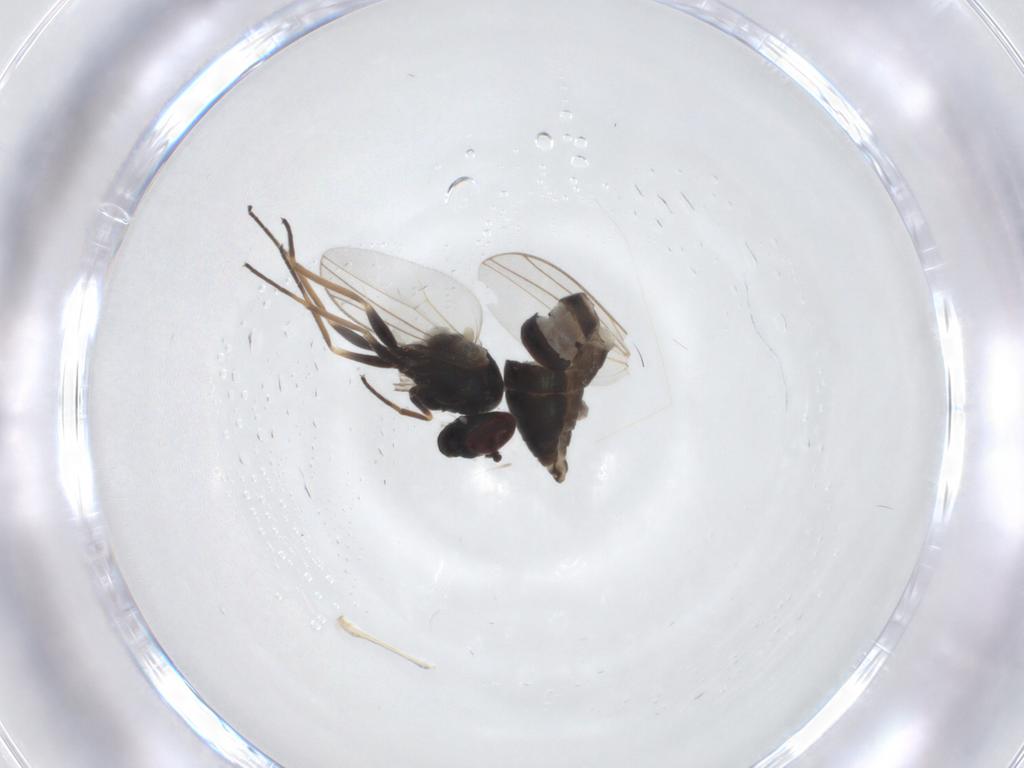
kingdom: Animalia
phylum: Arthropoda
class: Insecta
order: Diptera
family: Dolichopodidae
